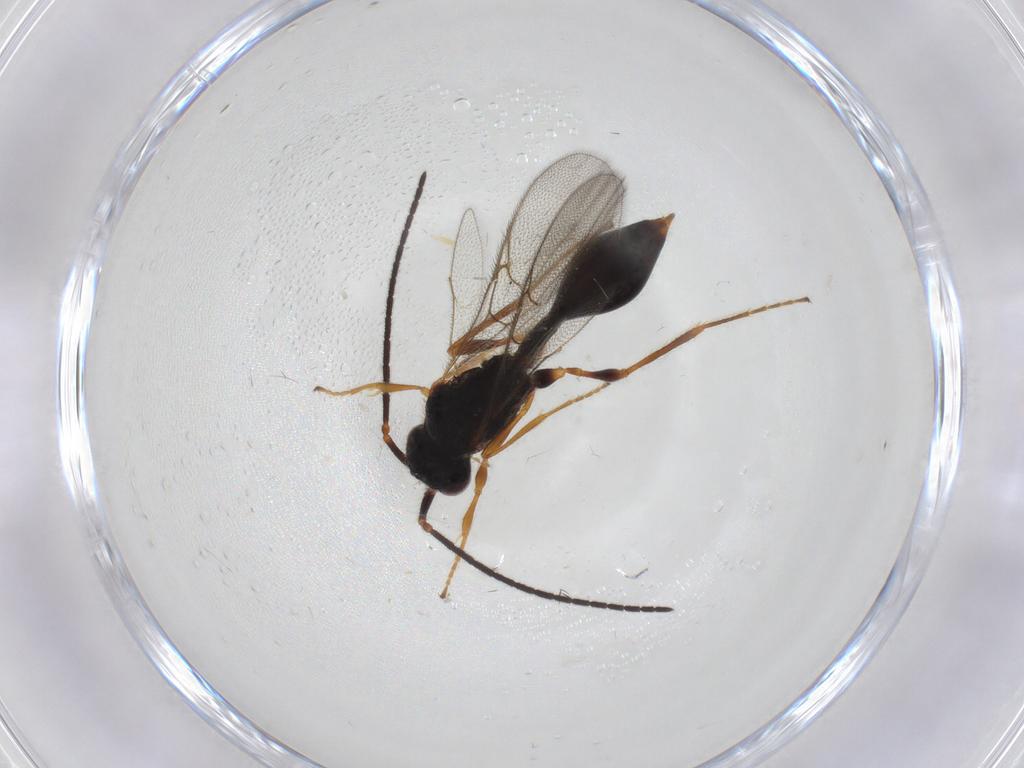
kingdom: Animalia
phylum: Arthropoda
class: Insecta
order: Hymenoptera
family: Diapriidae
